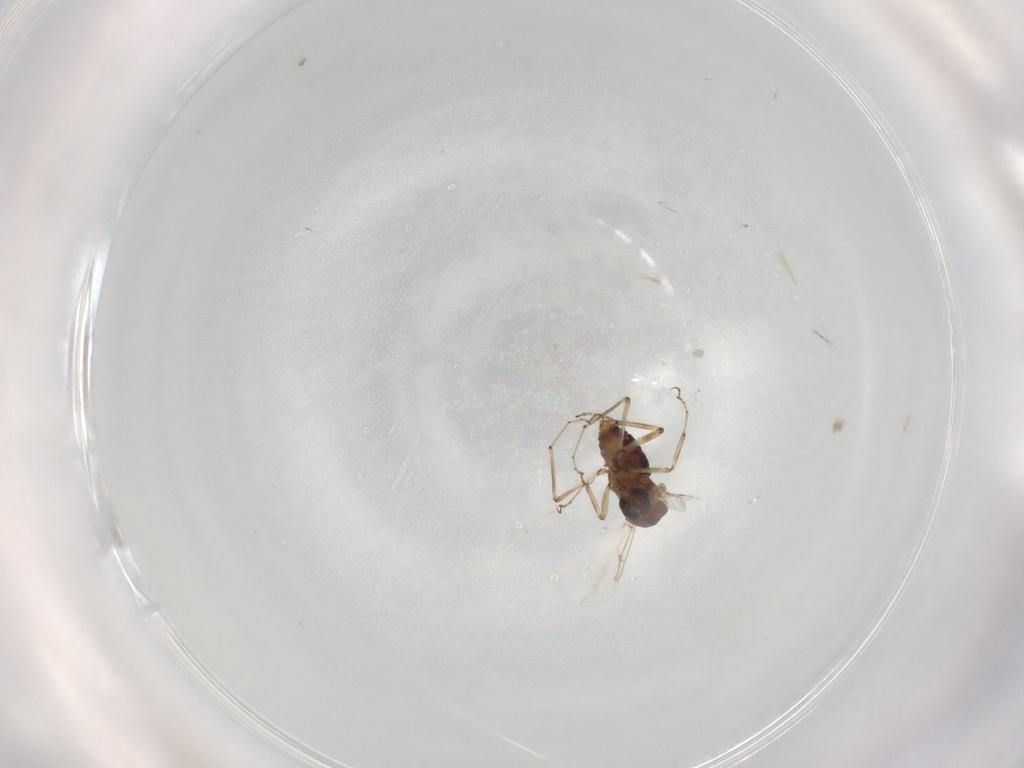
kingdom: Animalia
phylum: Arthropoda
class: Insecta
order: Diptera
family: Ceratopogonidae
